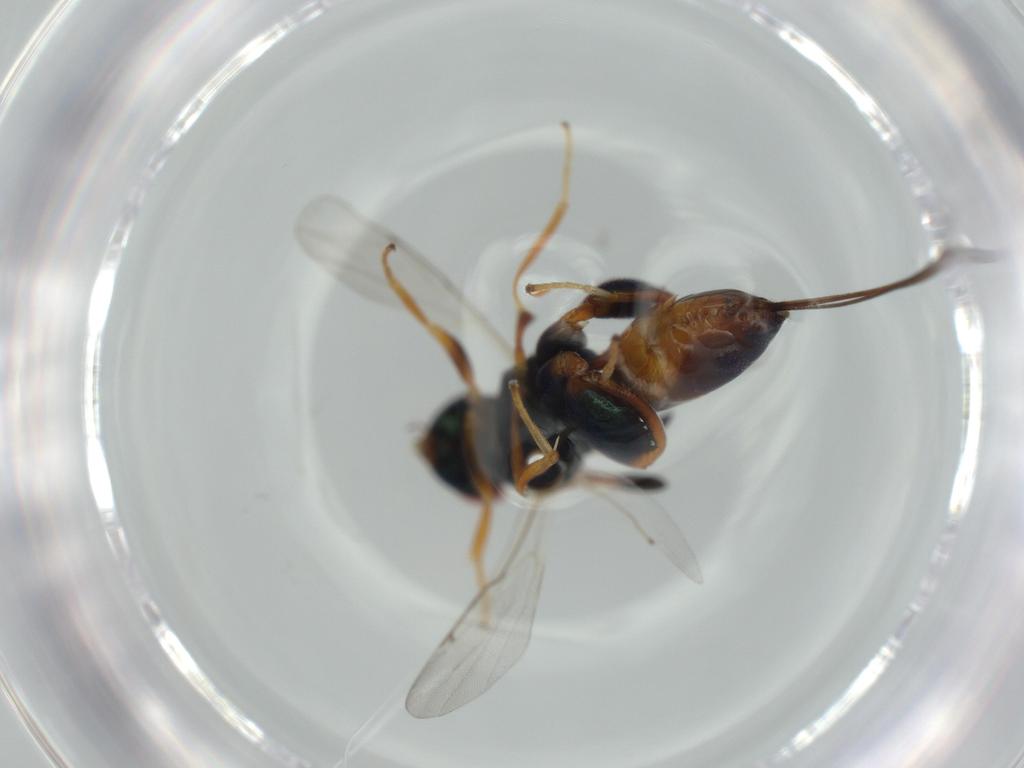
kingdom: Animalia
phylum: Arthropoda
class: Insecta
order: Hymenoptera
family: Torymidae
